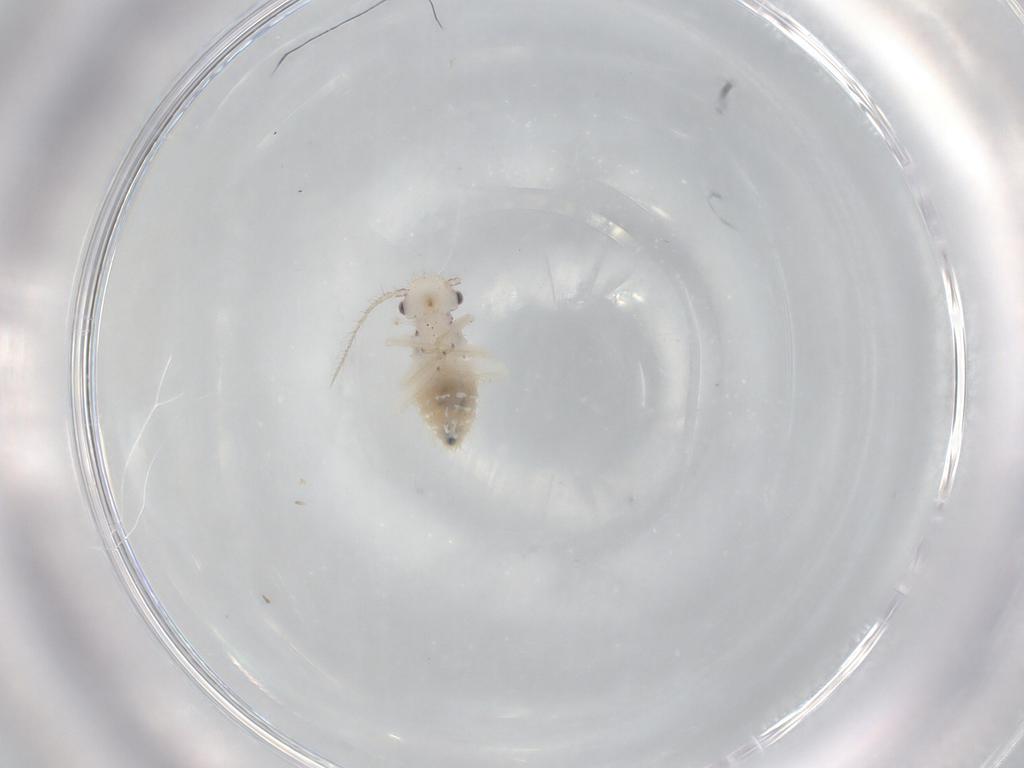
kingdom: Animalia
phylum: Arthropoda
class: Insecta
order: Psocodea
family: Pseudocaeciliidae
